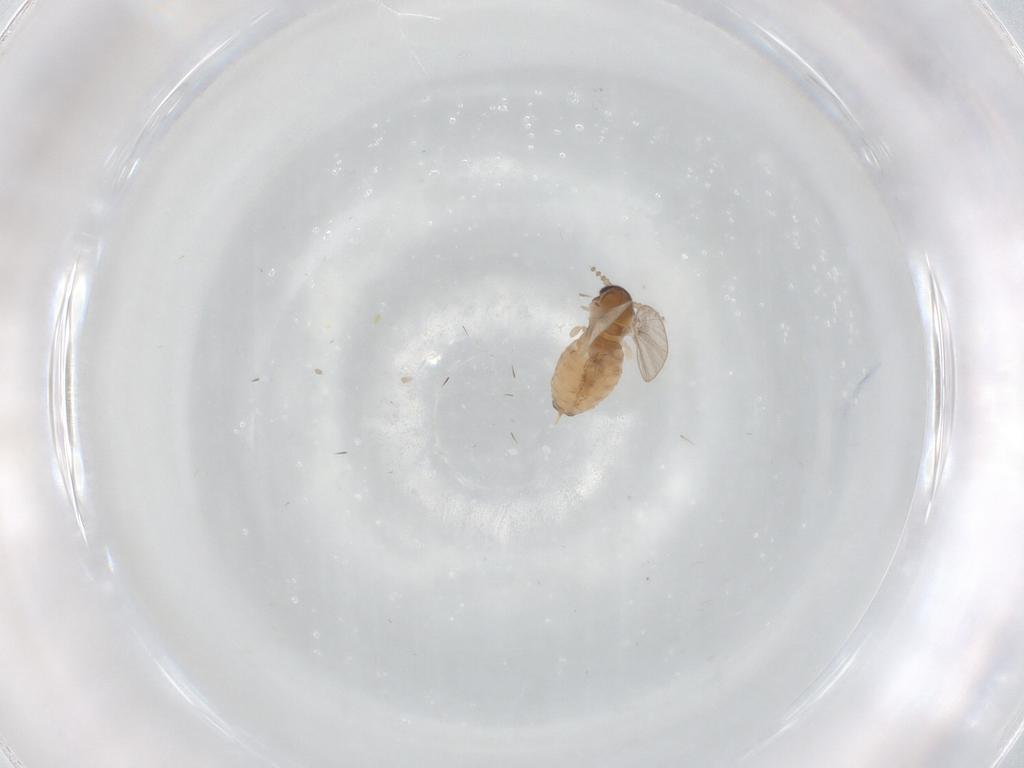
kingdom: Animalia
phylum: Arthropoda
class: Insecta
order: Diptera
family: Psychodidae
